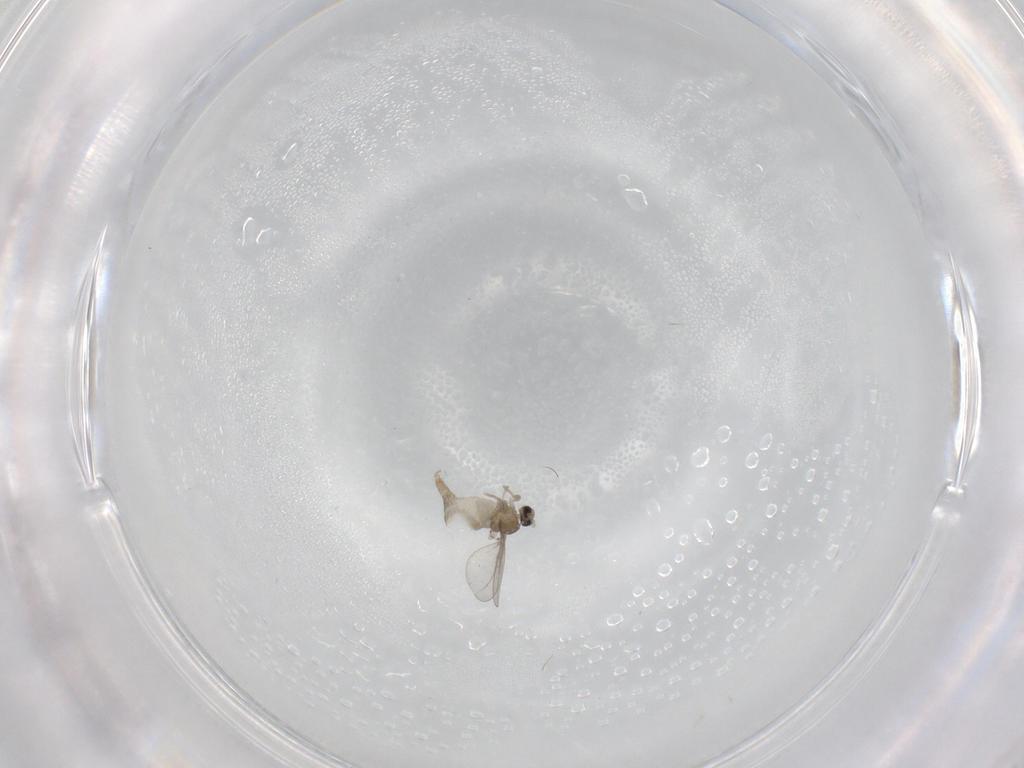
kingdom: Animalia
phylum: Arthropoda
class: Insecta
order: Diptera
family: Cecidomyiidae
